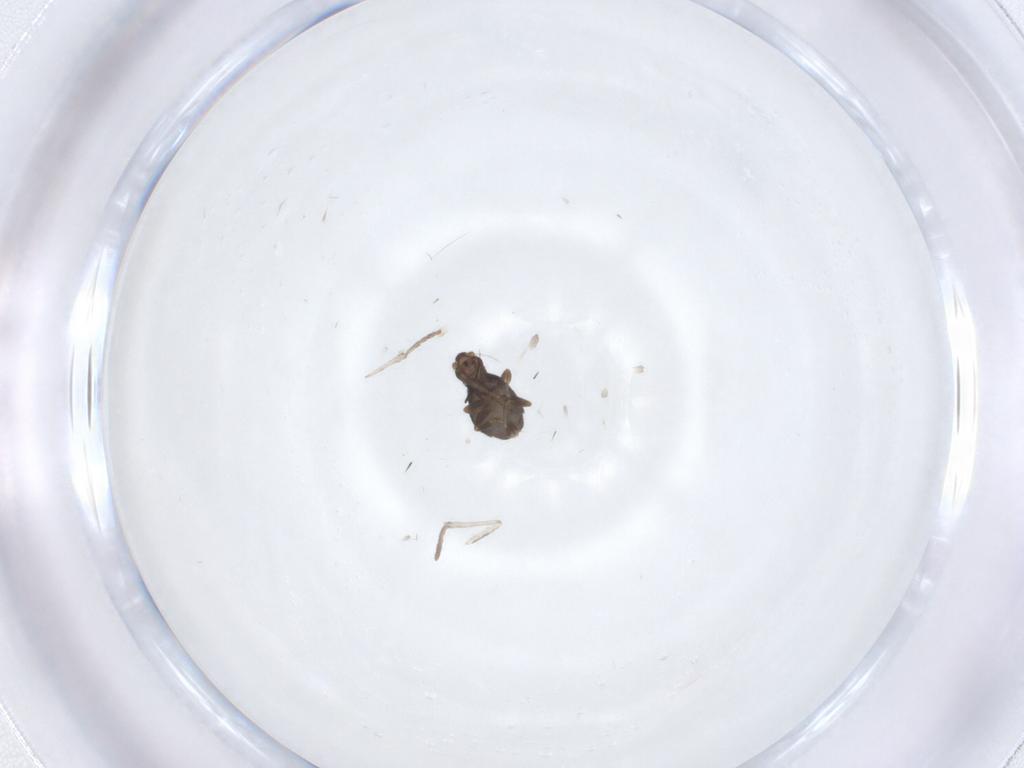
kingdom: Animalia
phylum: Arthropoda
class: Insecta
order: Diptera
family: Phoridae
